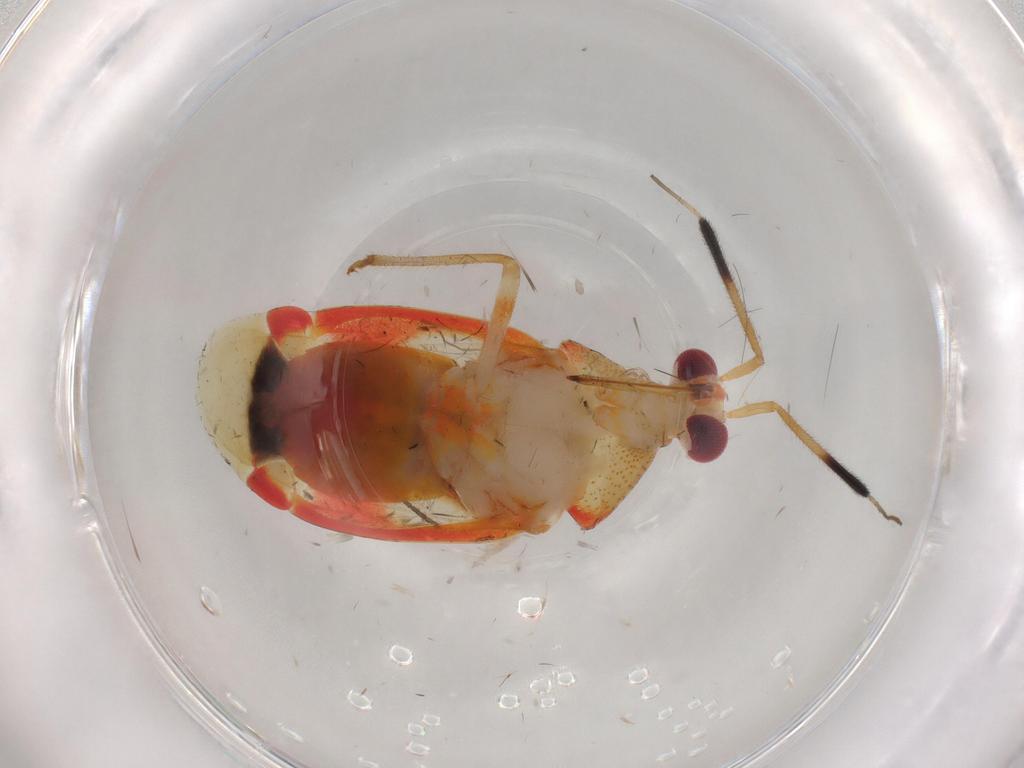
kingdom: Animalia
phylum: Arthropoda
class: Insecta
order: Hemiptera
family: Miridae
